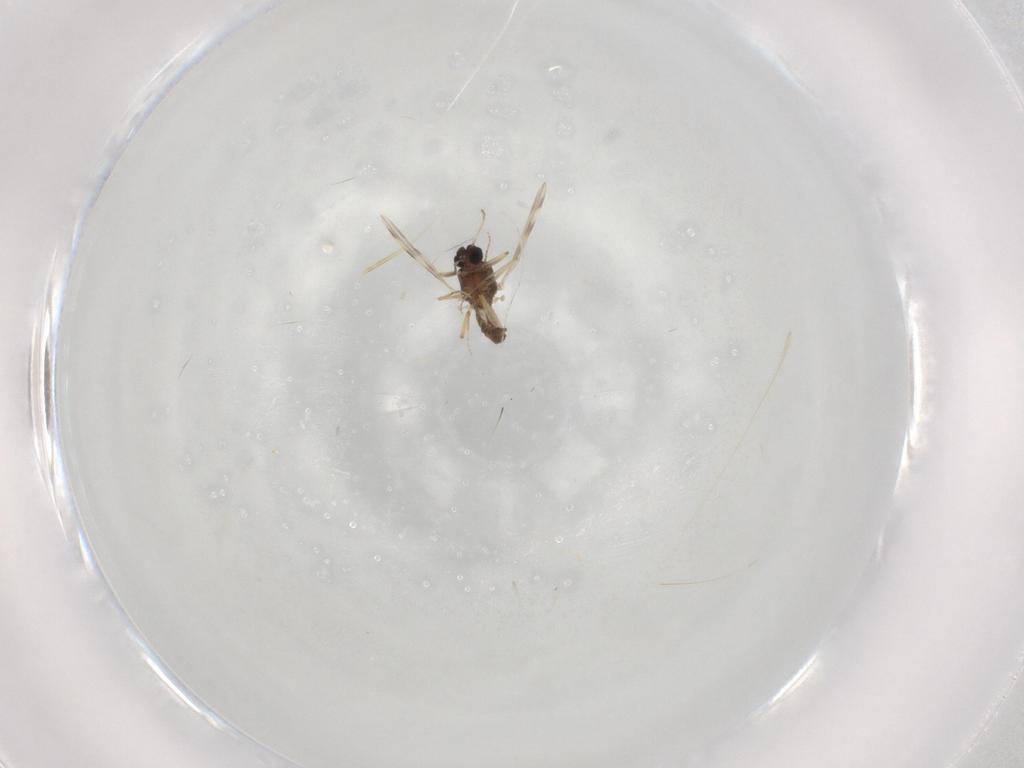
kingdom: Animalia
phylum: Arthropoda
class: Insecta
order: Diptera
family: Ceratopogonidae
